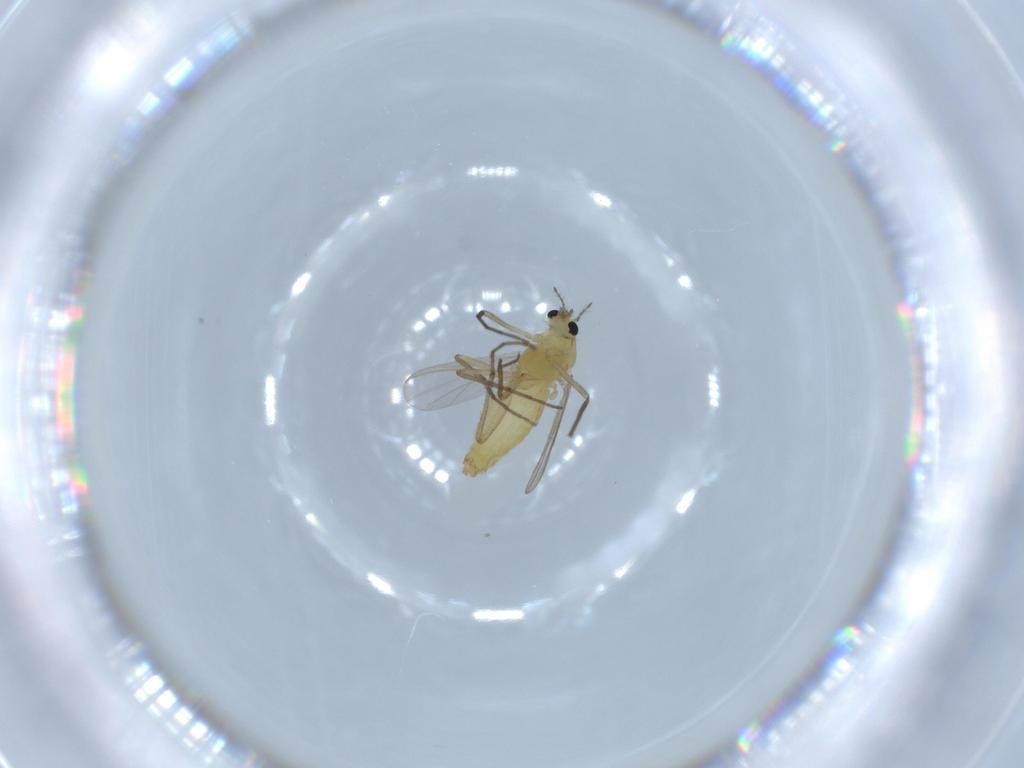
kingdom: Animalia
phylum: Arthropoda
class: Insecta
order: Diptera
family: Chironomidae
